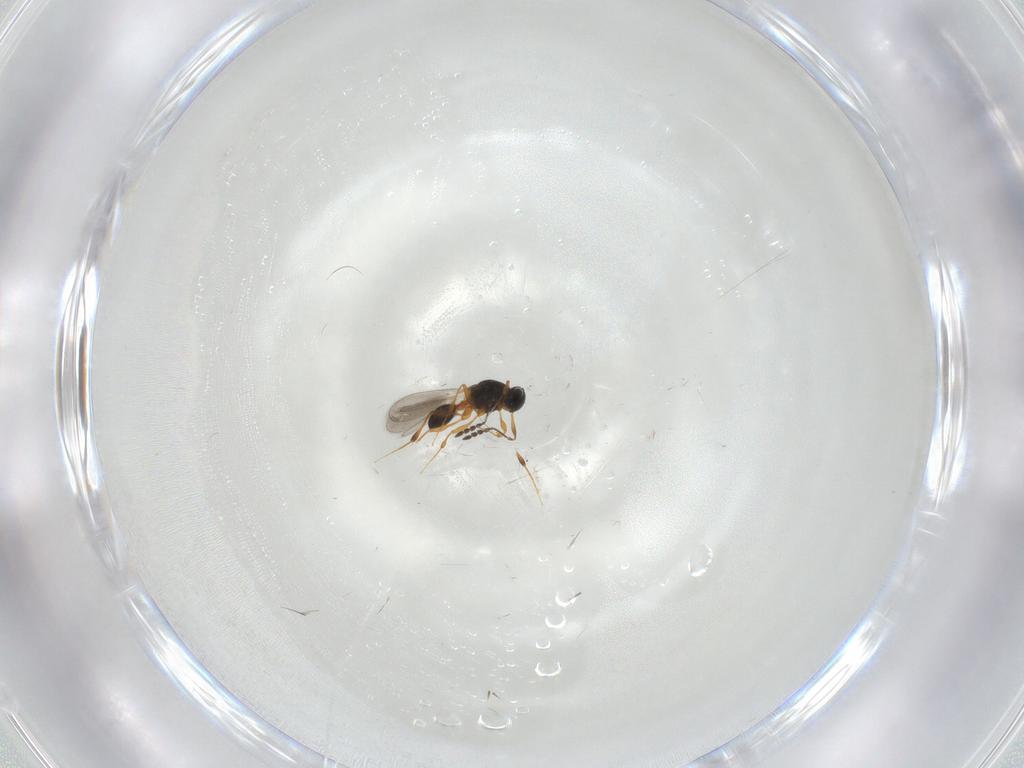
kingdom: Animalia
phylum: Arthropoda
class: Insecta
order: Hymenoptera
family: Platygastridae
